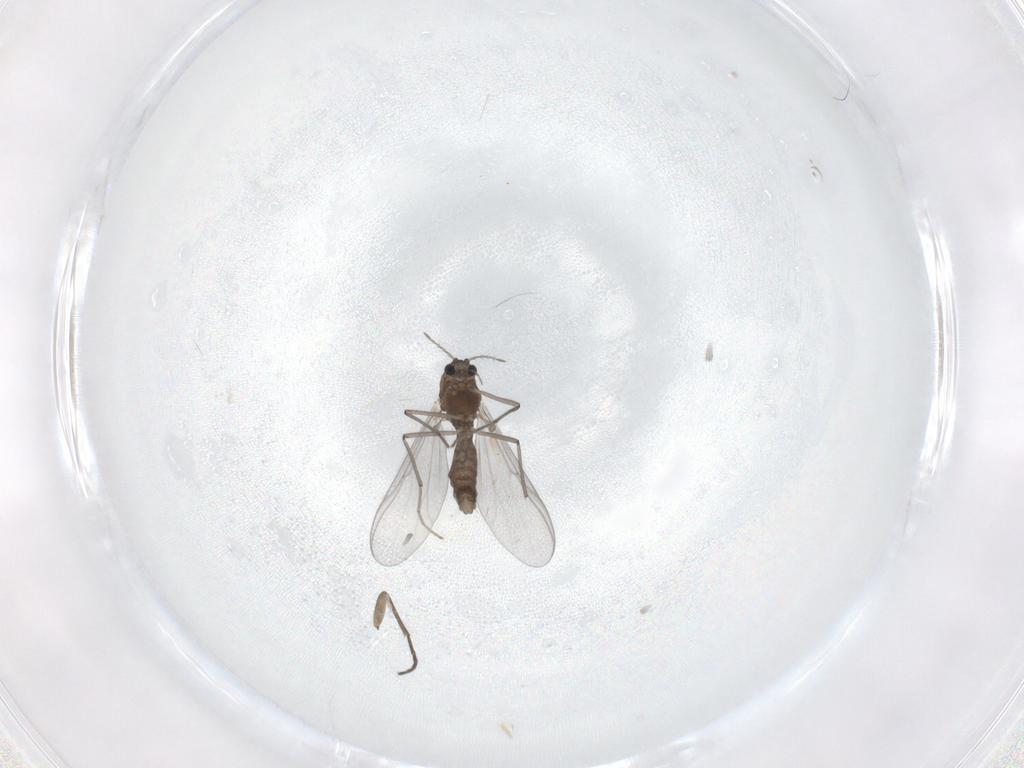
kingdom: Animalia
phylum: Arthropoda
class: Insecta
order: Diptera
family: Chironomidae
